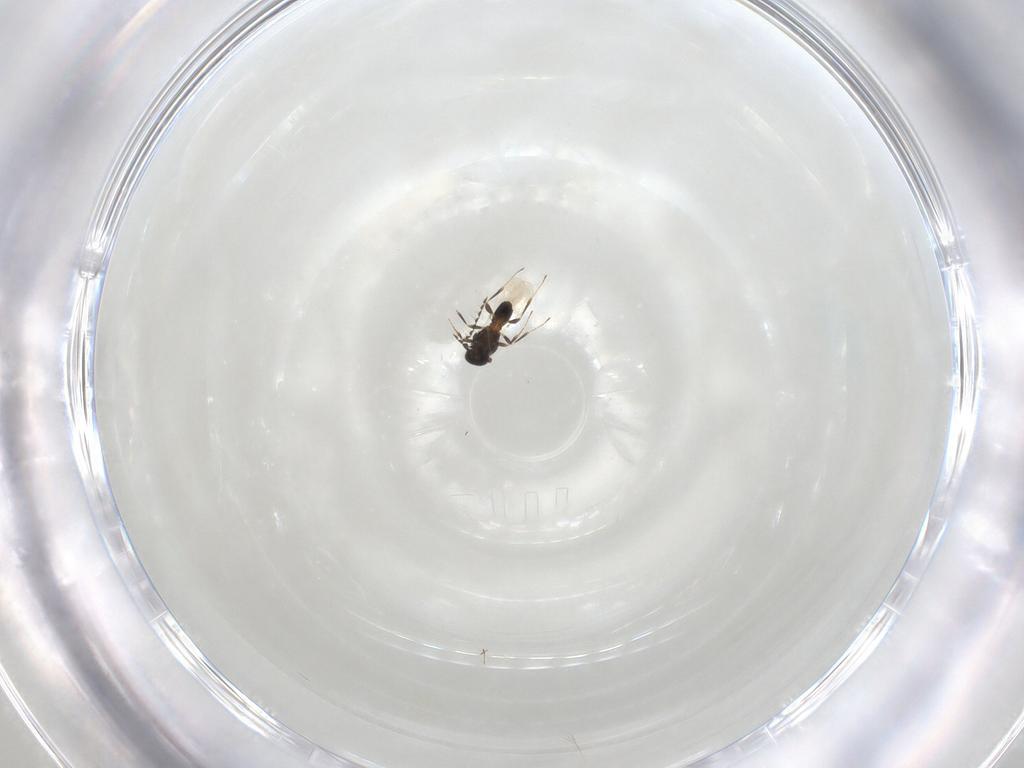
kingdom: Animalia
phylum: Arthropoda
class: Insecta
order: Hymenoptera
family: Platygastridae
